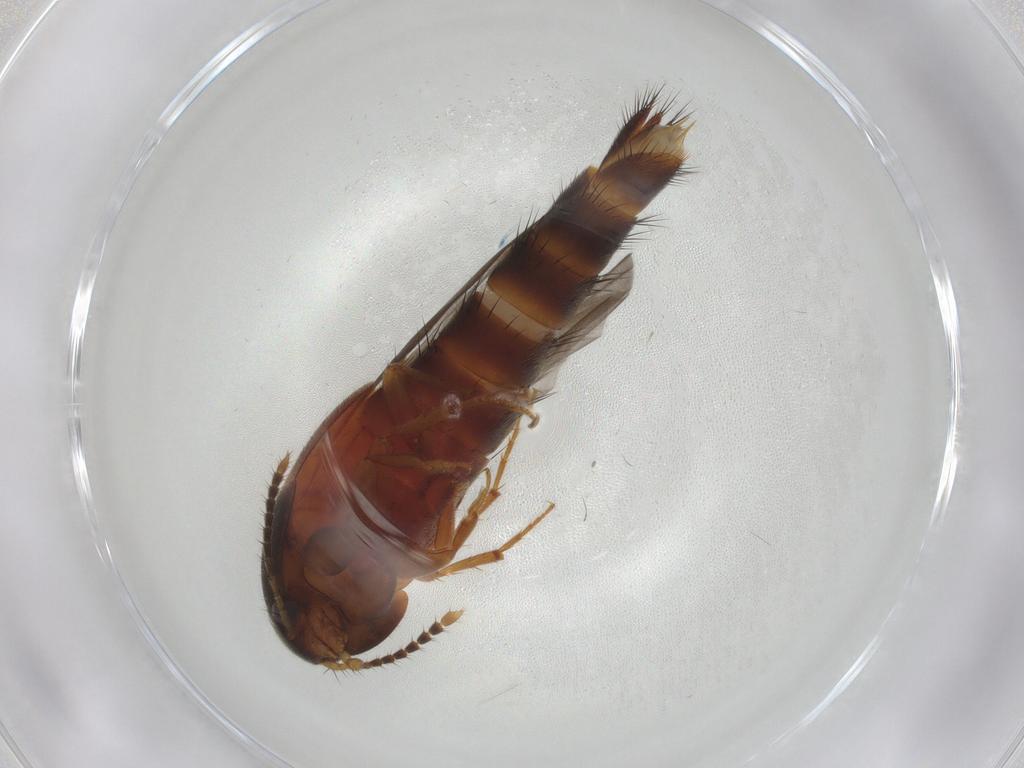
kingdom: Animalia
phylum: Arthropoda
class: Insecta
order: Coleoptera
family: Staphylinidae
